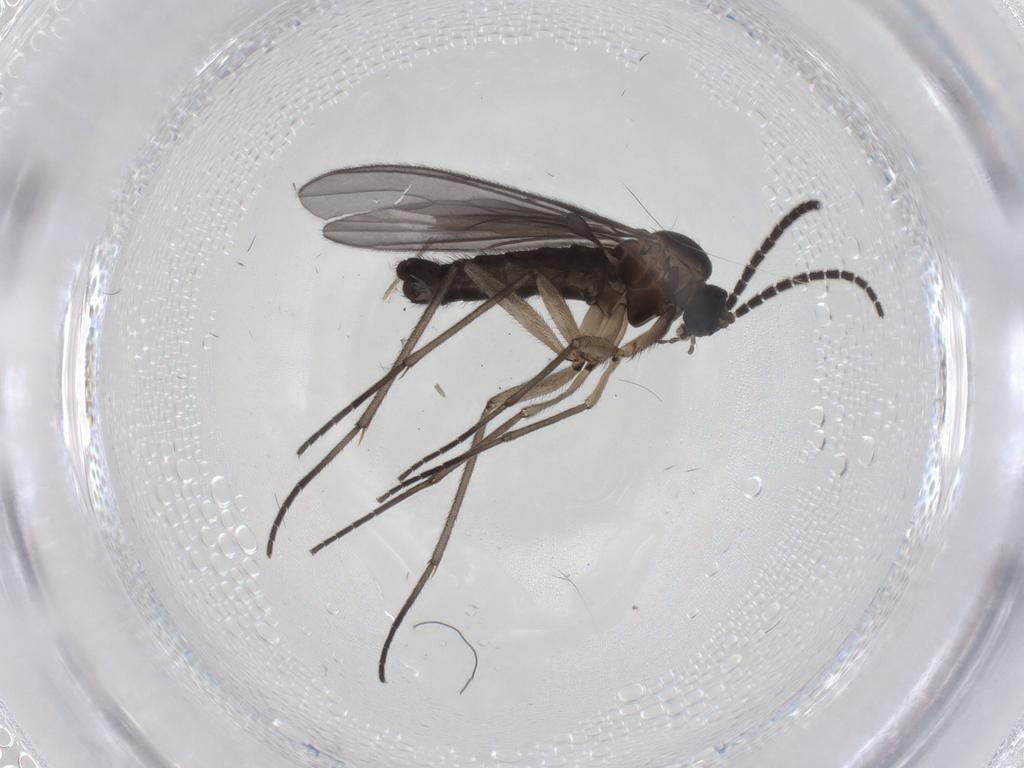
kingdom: Animalia
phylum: Arthropoda
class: Insecta
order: Diptera
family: Sciaridae
